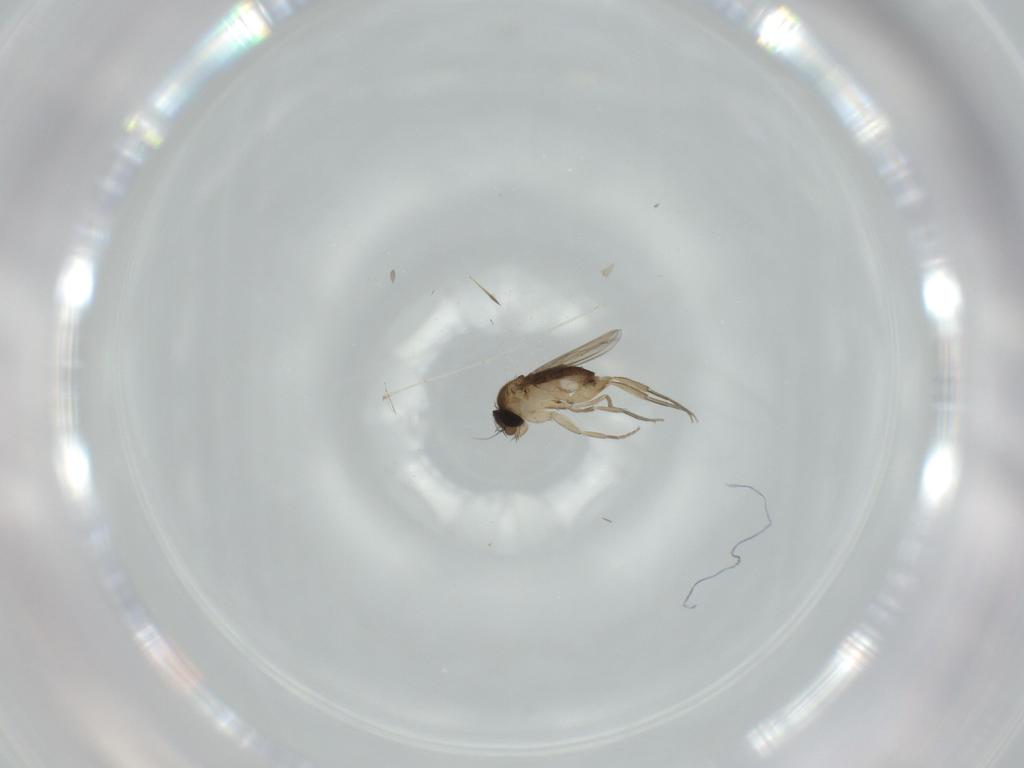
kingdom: Animalia
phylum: Arthropoda
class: Insecta
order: Diptera
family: Phoridae
